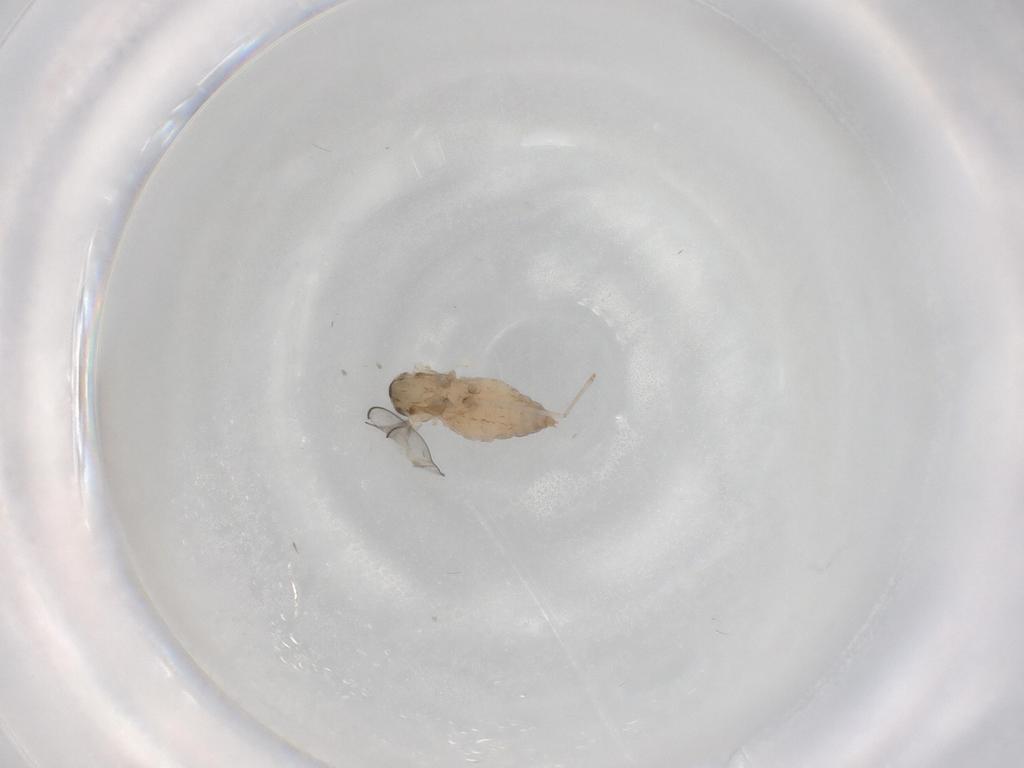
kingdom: Animalia
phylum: Arthropoda
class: Insecta
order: Diptera
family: Cecidomyiidae
